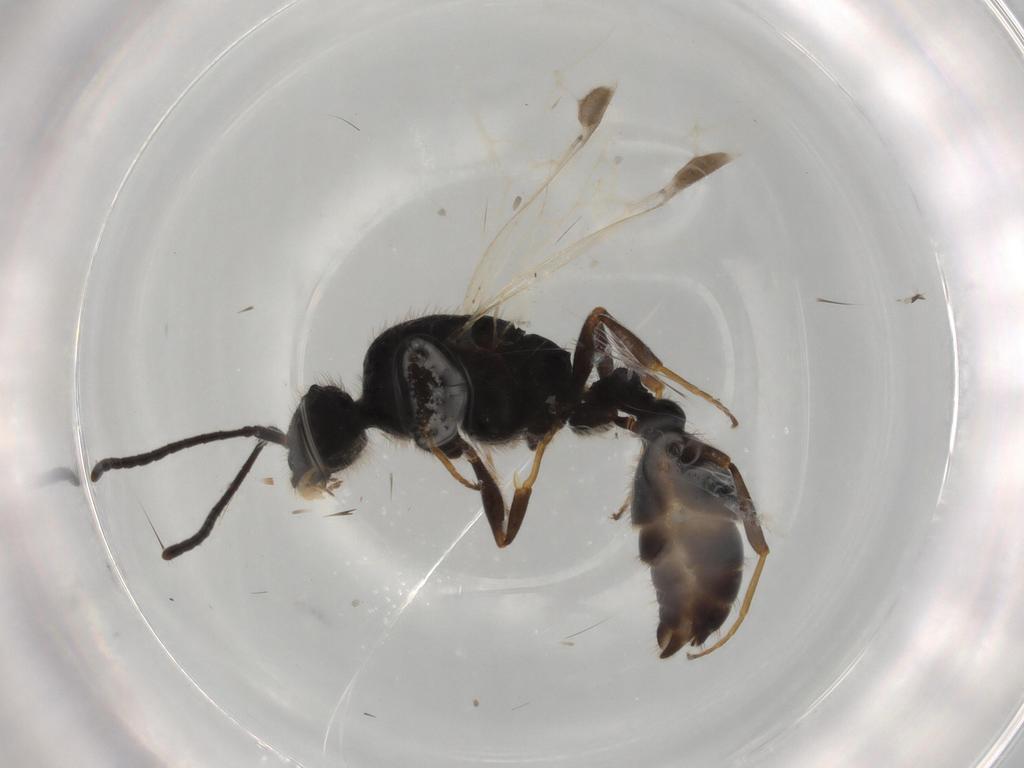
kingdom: Animalia
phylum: Arthropoda
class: Insecta
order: Hymenoptera
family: Formicidae
